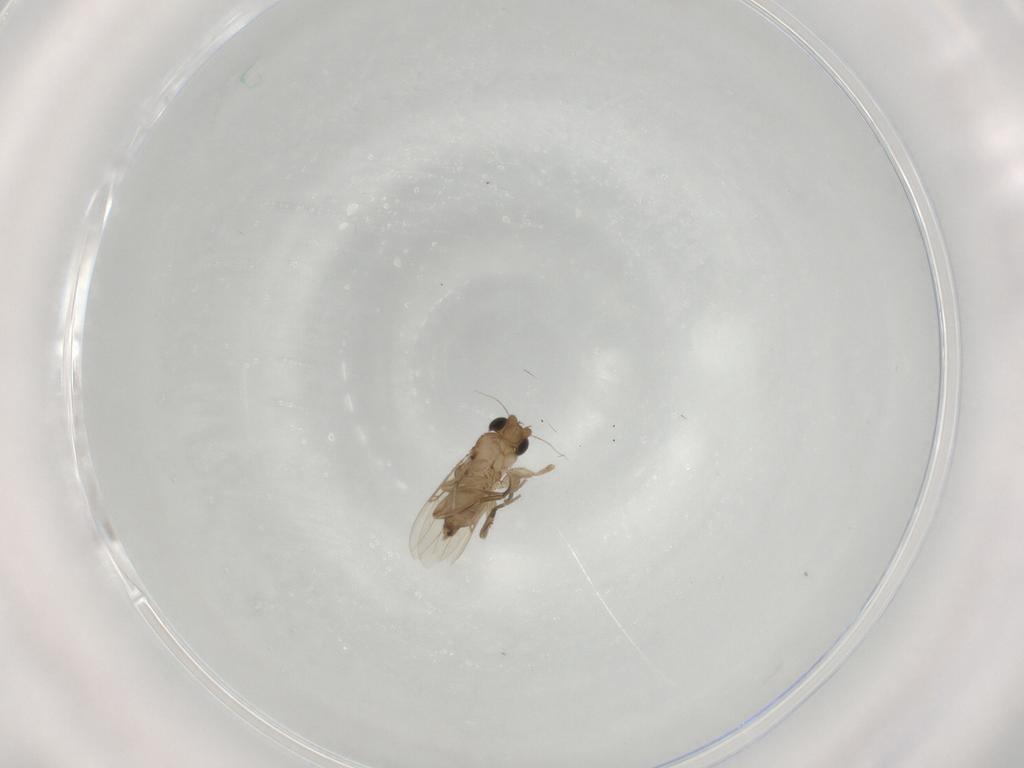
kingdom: Animalia
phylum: Arthropoda
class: Insecta
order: Diptera
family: Phoridae
